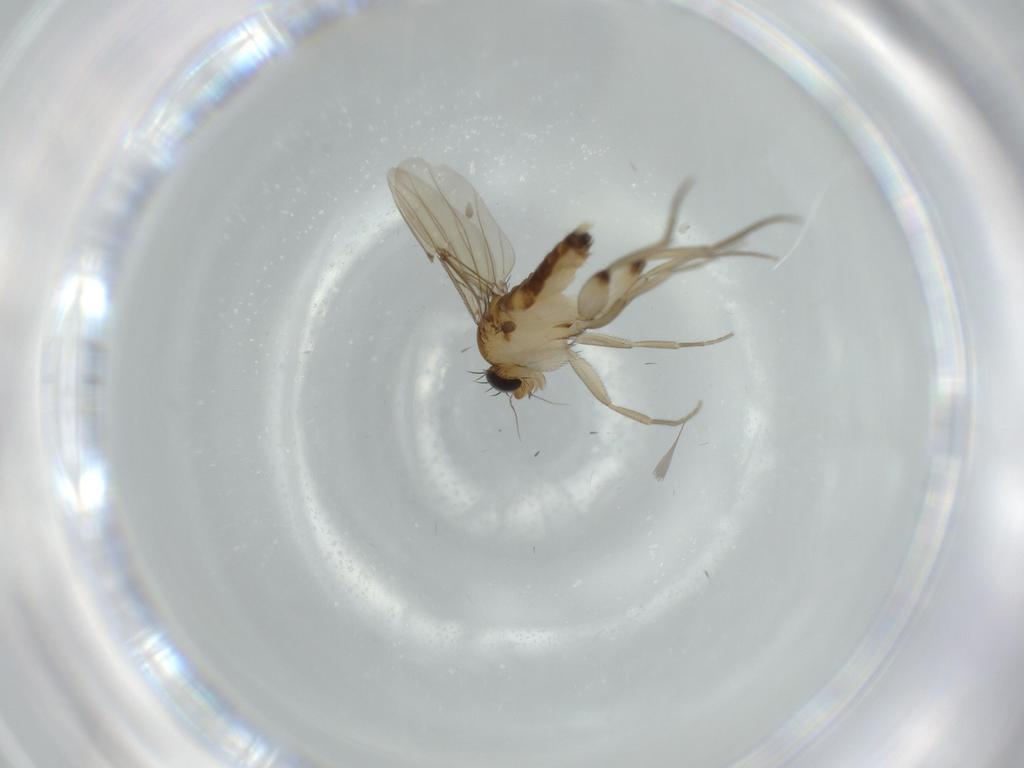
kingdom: Animalia
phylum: Arthropoda
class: Insecta
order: Diptera
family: Phoridae
